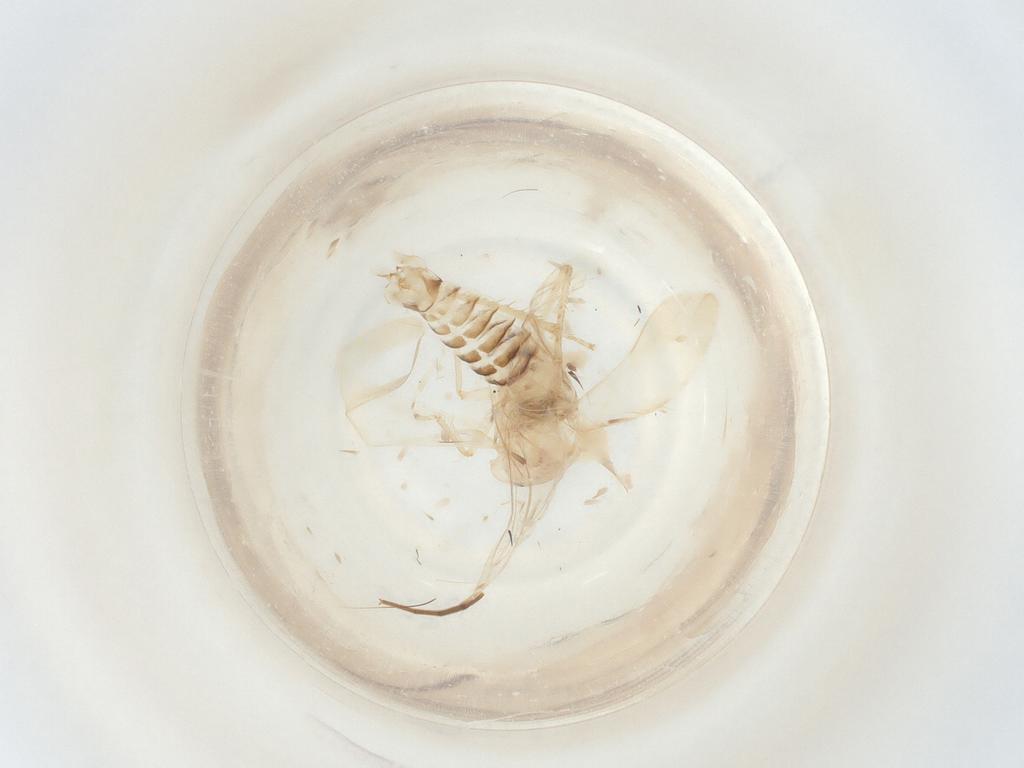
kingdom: Animalia
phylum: Arthropoda
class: Insecta
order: Hemiptera
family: Cicadellidae
